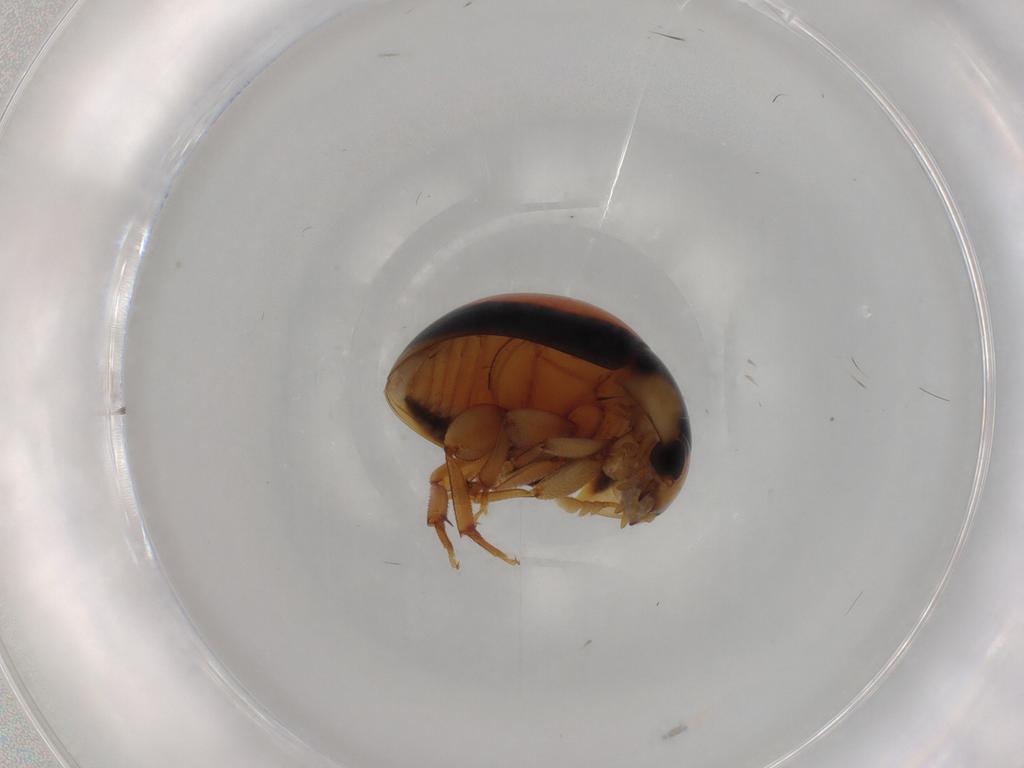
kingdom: Animalia
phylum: Arthropoda
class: Insecta
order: Coleoptera
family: Phalacridae
